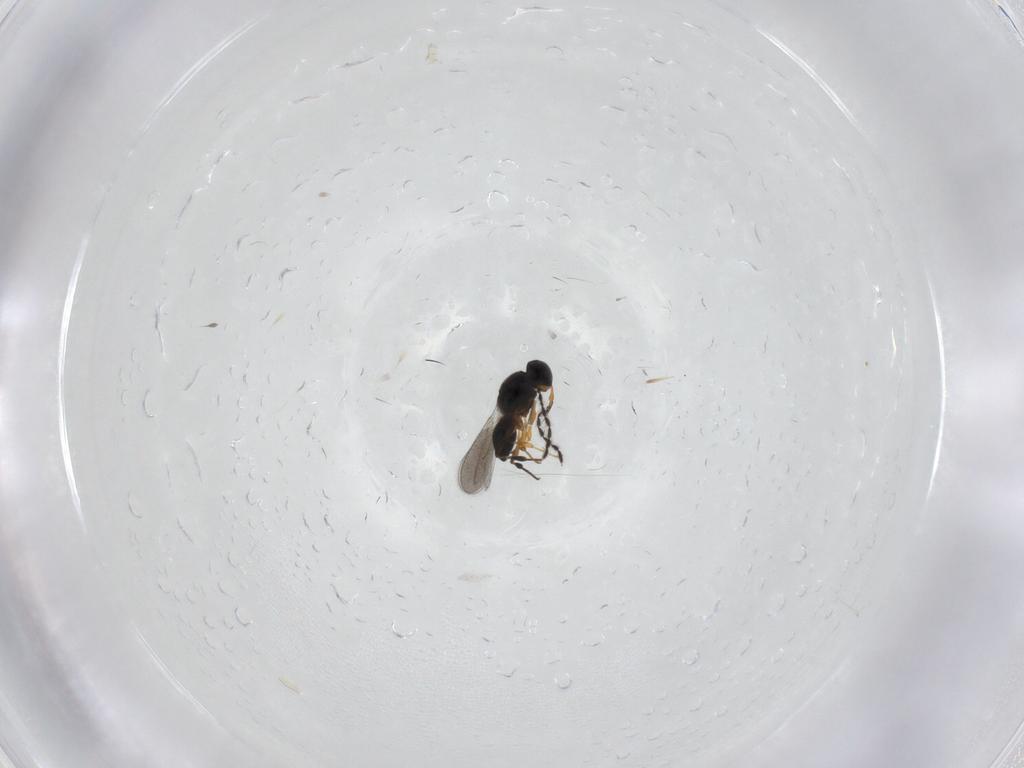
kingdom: Animalia
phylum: Arthropoda
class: Insecta
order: Hymenoptera
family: Platygastridae
